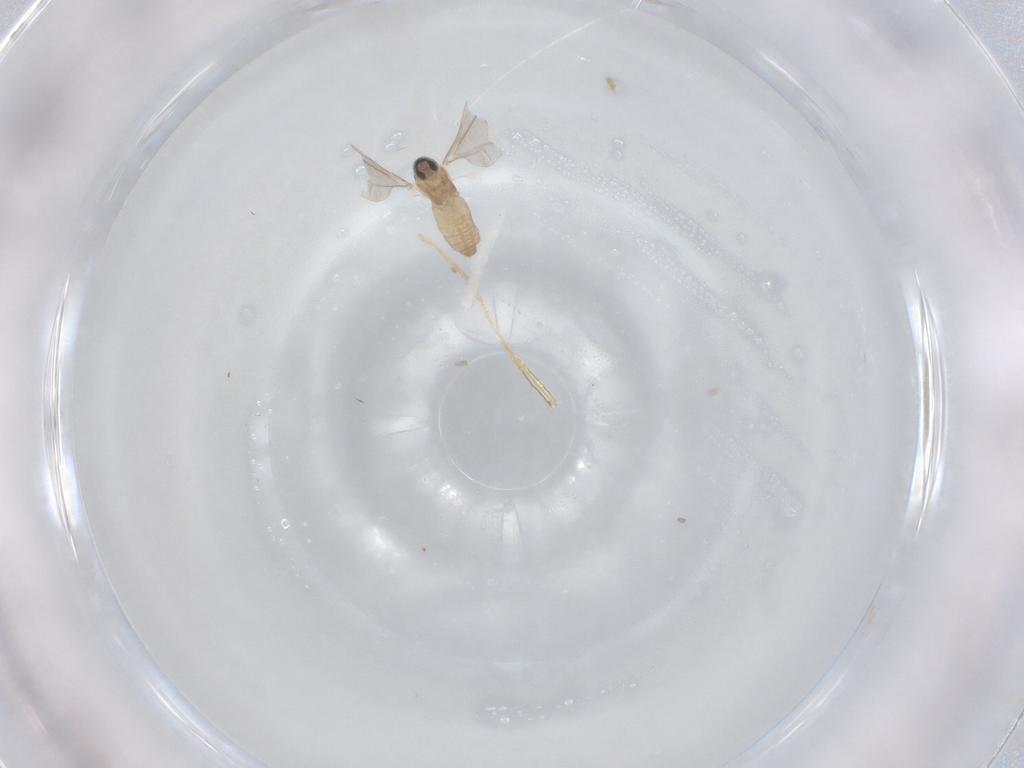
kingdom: Animalia
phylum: Arthropoda
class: Insecta
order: Diptera
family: Cecidomyiidae
